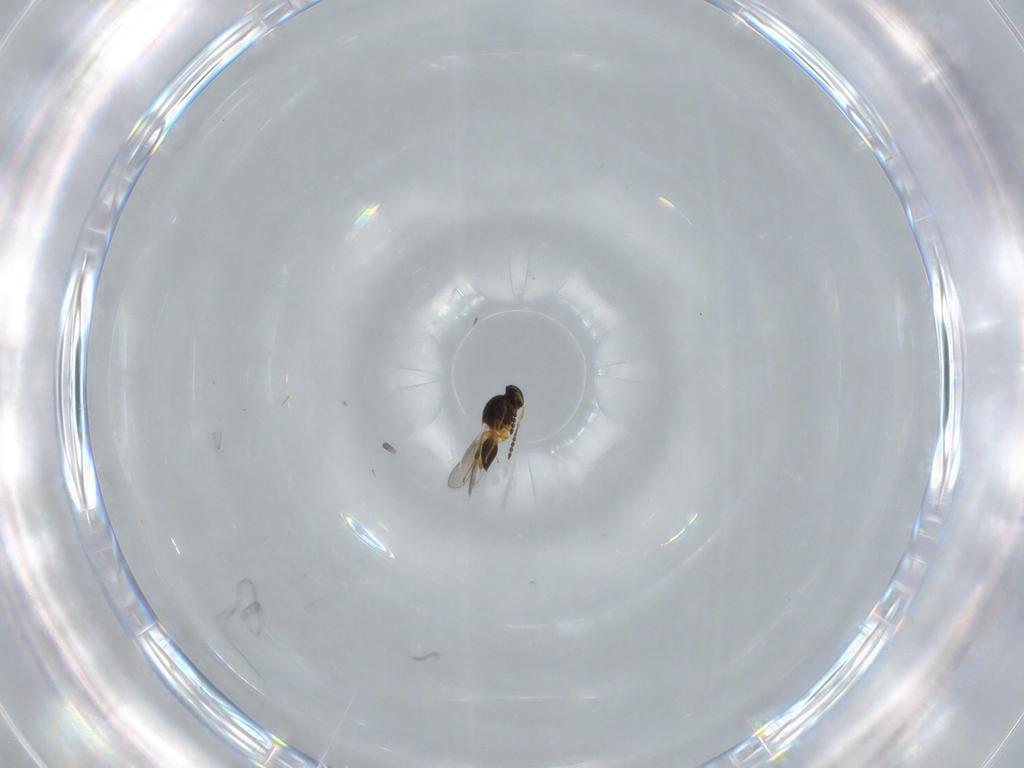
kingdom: Animalia
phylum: Arthropoda
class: Insecta
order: Hymenoptera
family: Platygastridae
